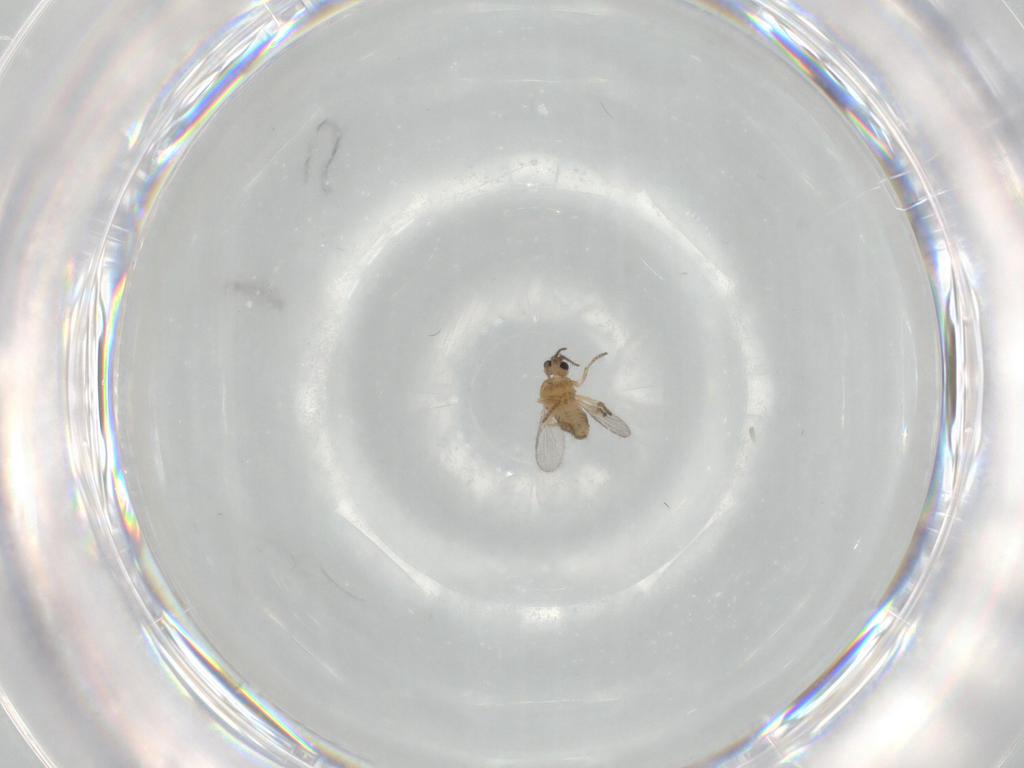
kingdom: Animalia
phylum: Arthropoda
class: Insecta
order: Diptera
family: Ceratopogonidae
